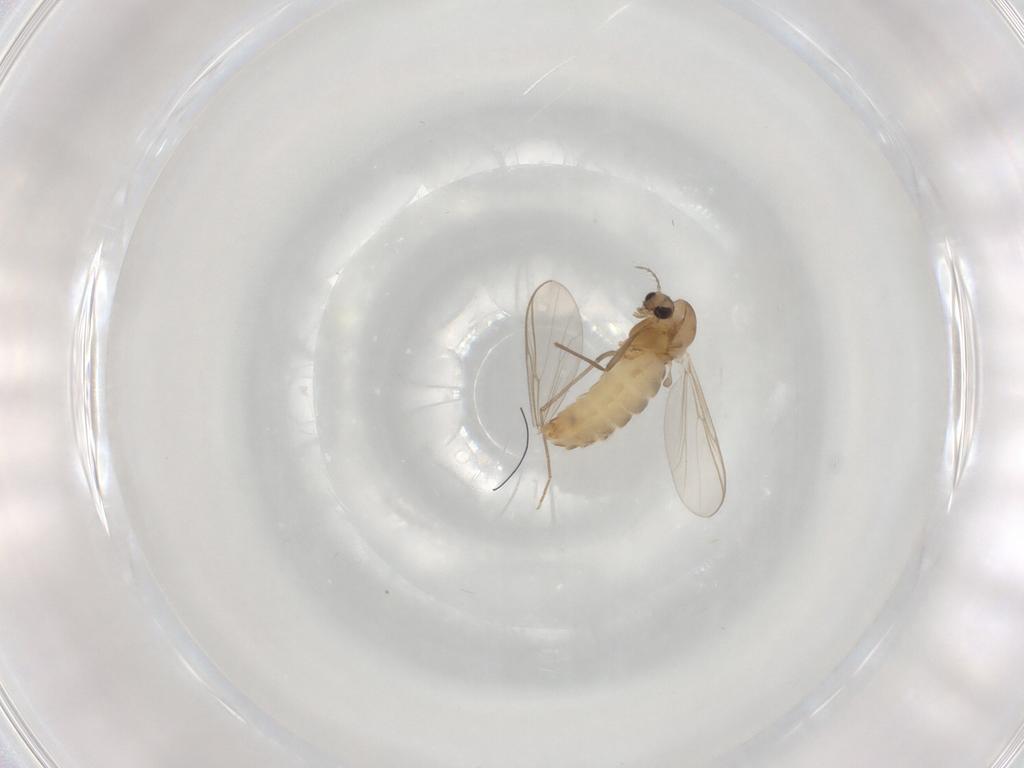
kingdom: Animalia
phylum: Arthropoda
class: Insecta
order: Diptera
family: Chironomidae
